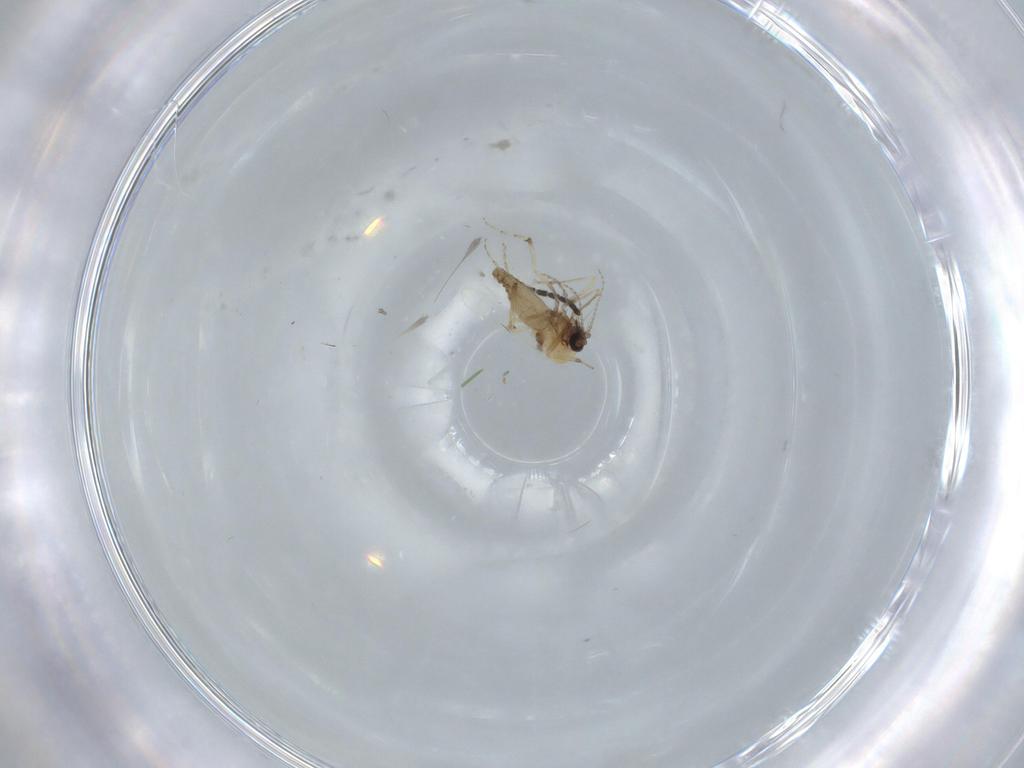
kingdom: Animalia
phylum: Arthropoda
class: Insecta
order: Diptera
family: Sciaridae
